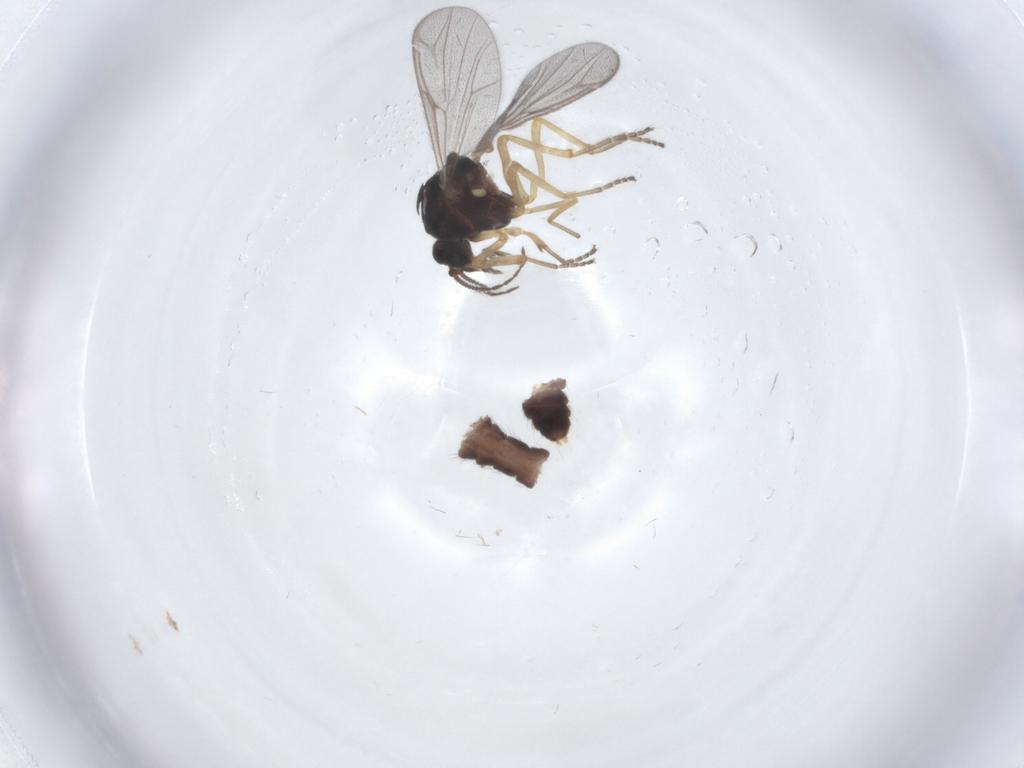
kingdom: Animalia
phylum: Arthropoda
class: Insecta
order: Diptera
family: Ceratopogonidae
